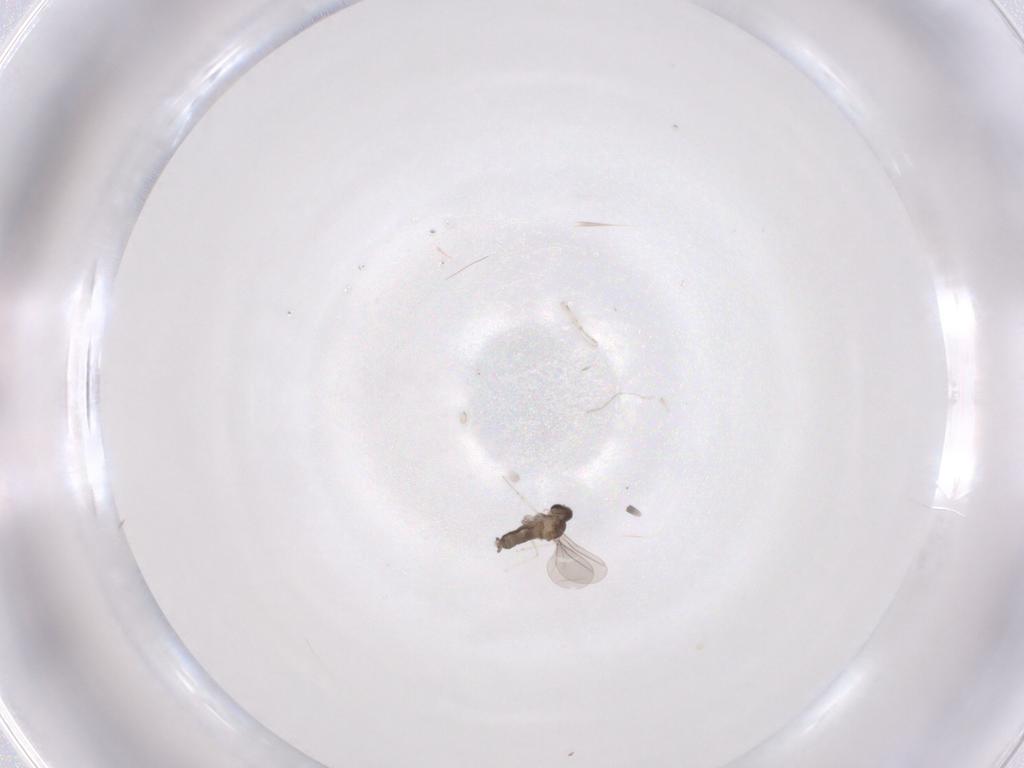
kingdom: Animalia
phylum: Arthropoda
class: Insecta
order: Diptera
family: Cecidomyiidae
